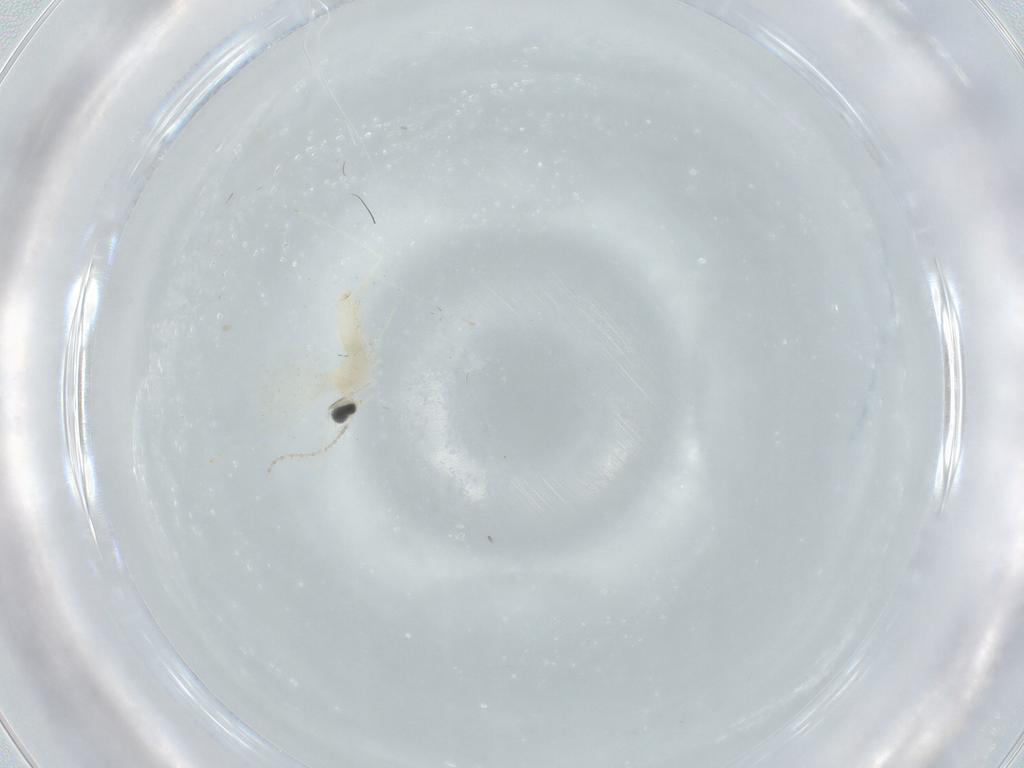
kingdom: Animalia
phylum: Arthropoda
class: Insecta
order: Diptera
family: Cecidomyiidae
